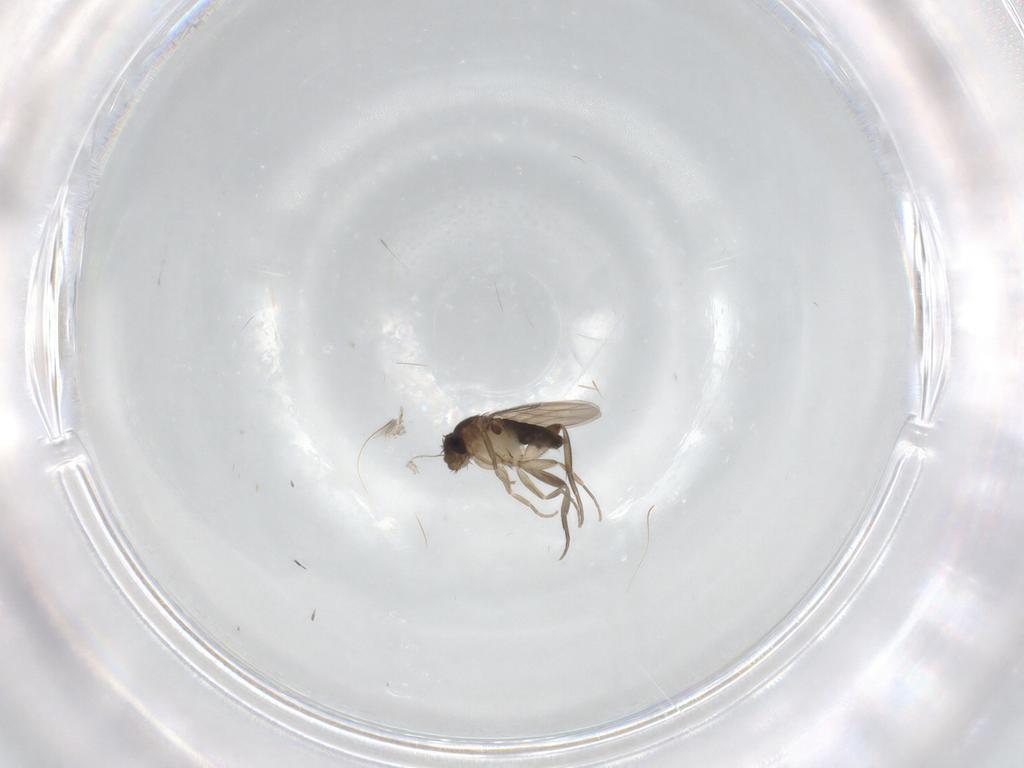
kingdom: Animalia
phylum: Arthropoda
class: Insecta
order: Diptera
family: Phoridae
